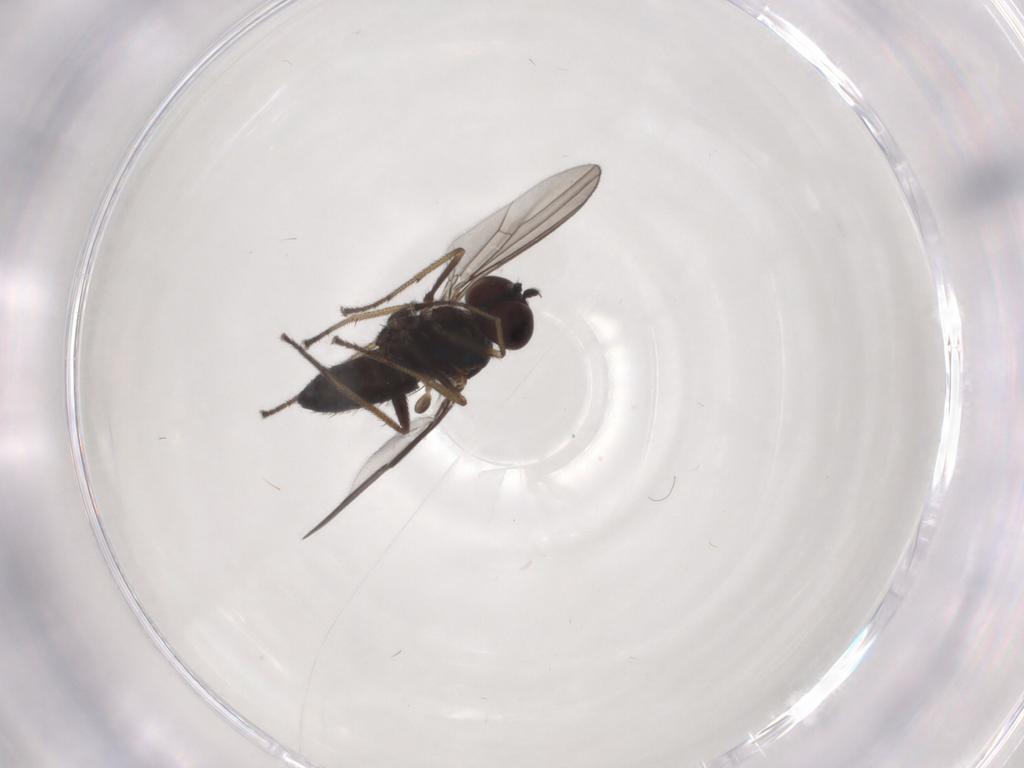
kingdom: Animalia
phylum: Arthropoda
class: Insecta
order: Diptera
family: Dolichopodidae
